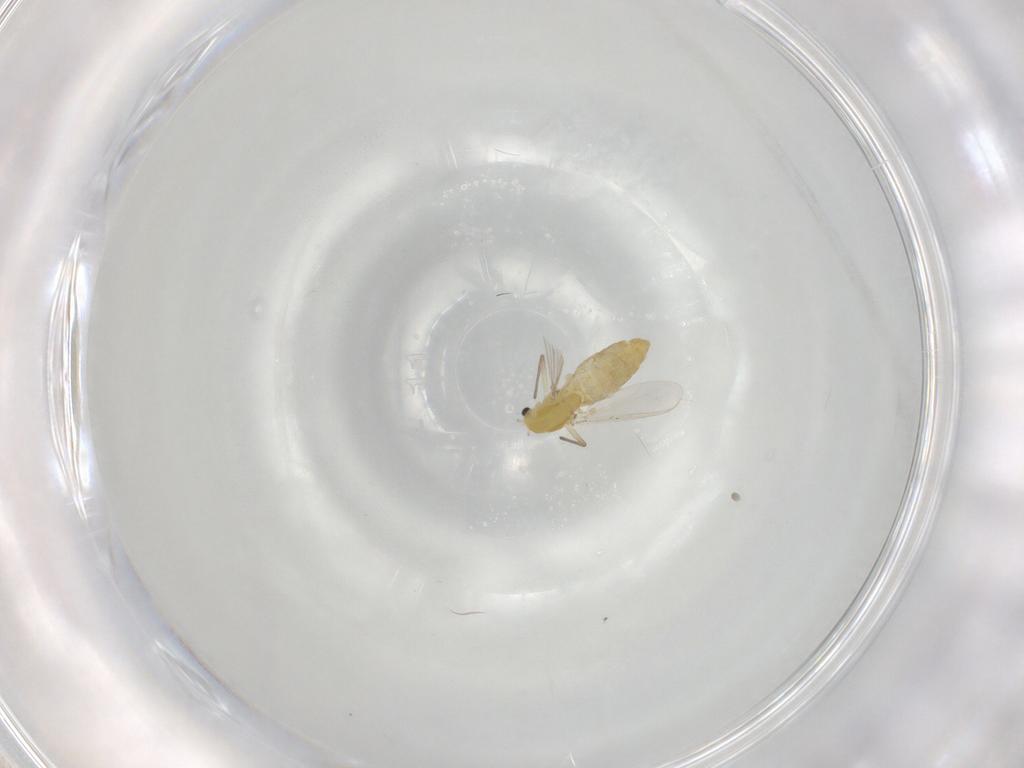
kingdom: Animalia
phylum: Arthropoda
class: Insecta
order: Diptera
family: Chironomidae
